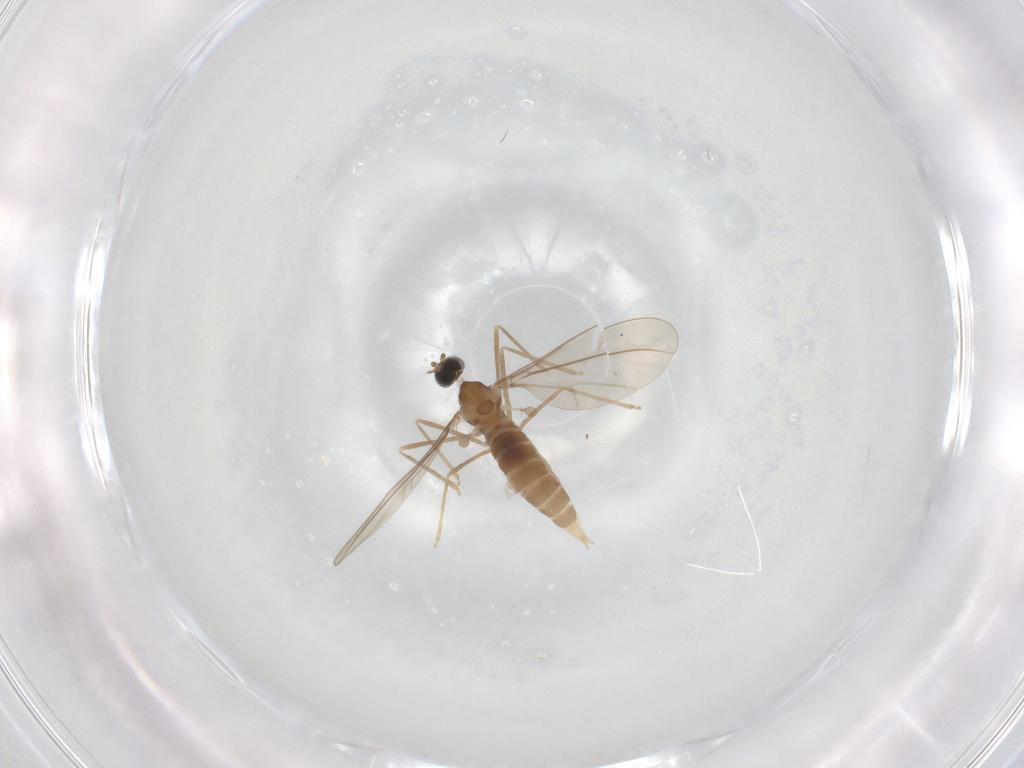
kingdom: Animalia
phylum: Arthropoda
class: Insecta
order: Diptera
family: Cecidomyiidae
